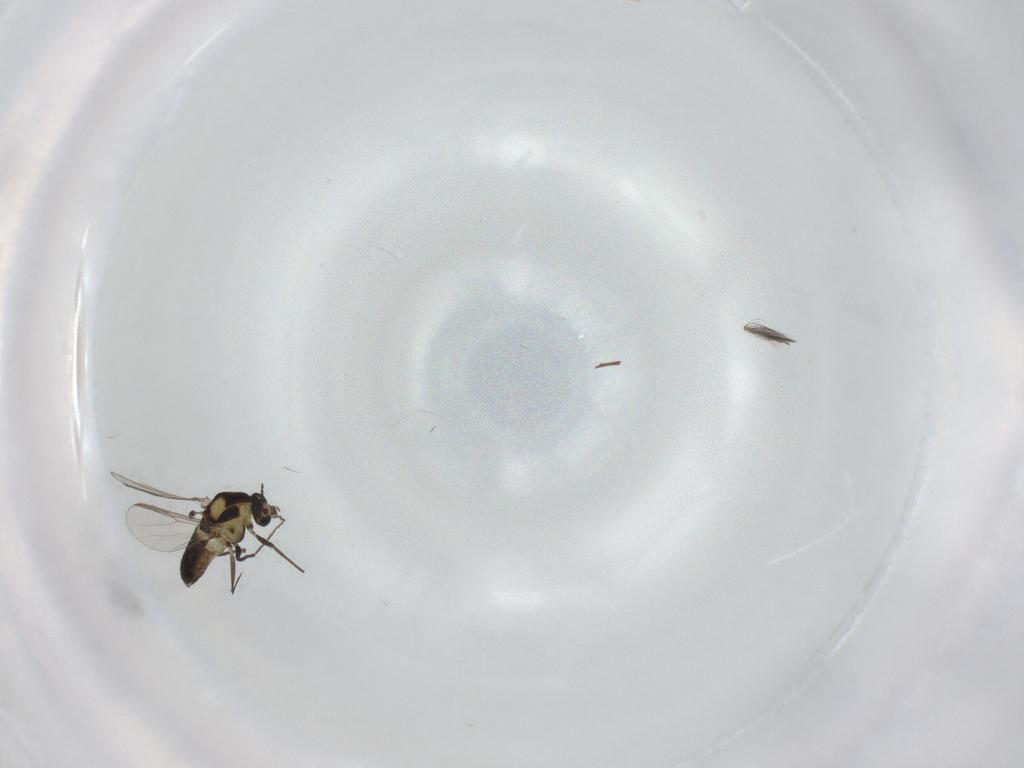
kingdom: Animalia
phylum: Arthropoda
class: Insecta
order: Diptera
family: Chironomidae
